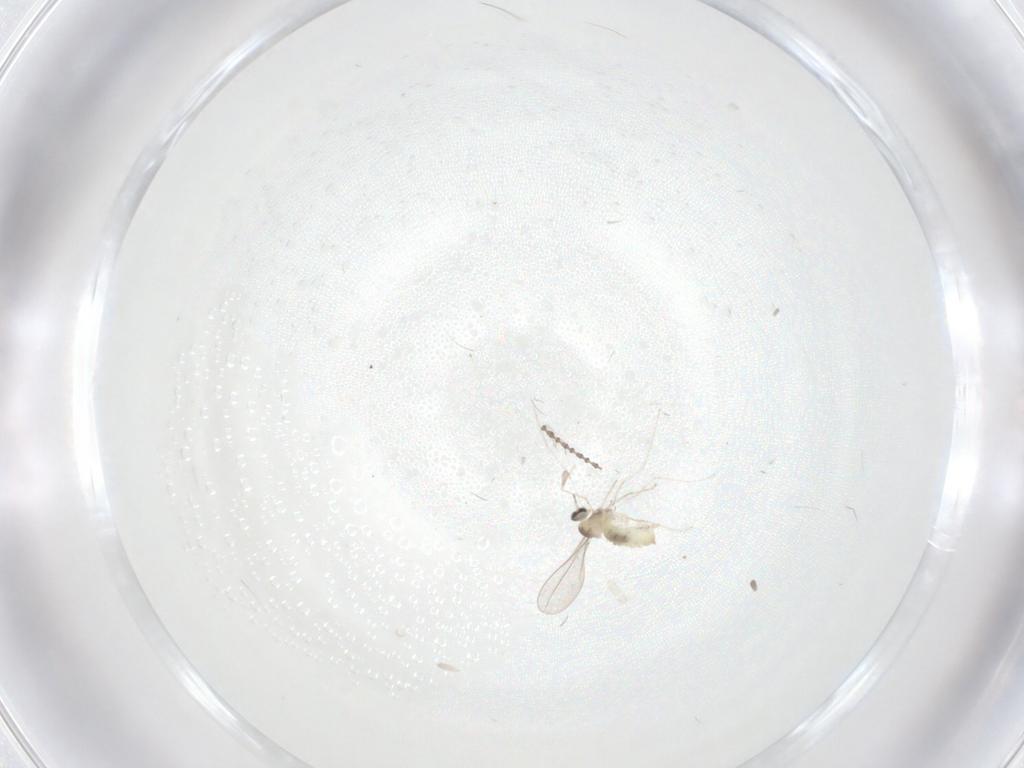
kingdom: Animalia
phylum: Arthropoda
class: Insecta
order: Diptera
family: Cecidomyiidae
